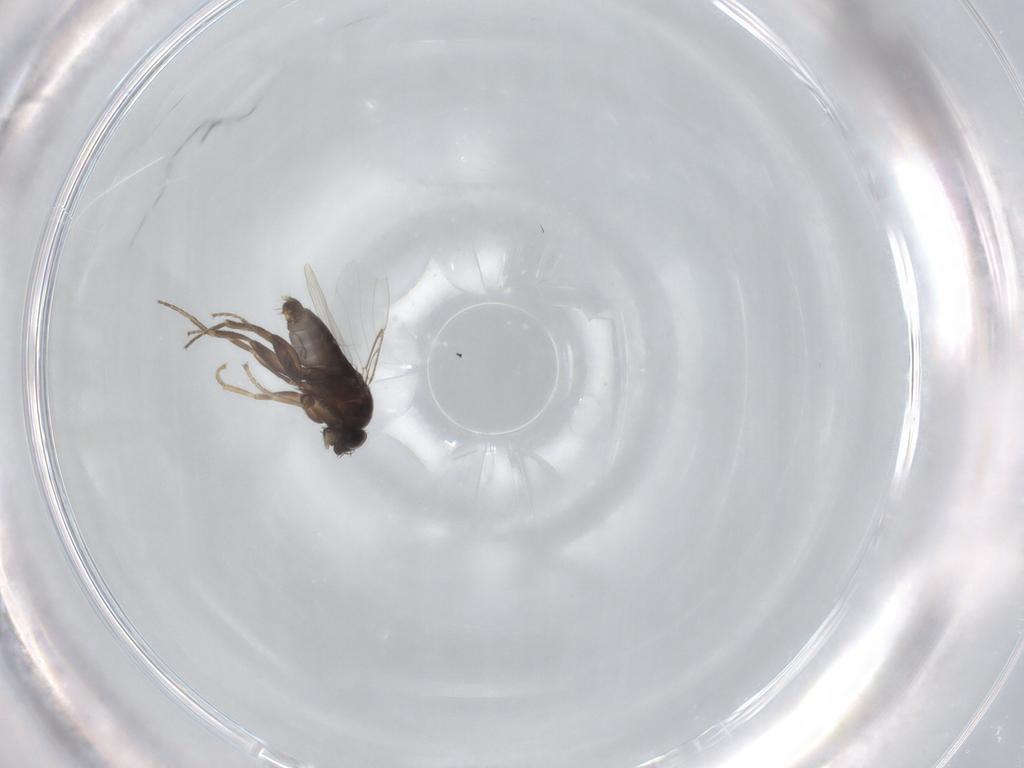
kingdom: Animalia
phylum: Arthropoda
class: Insecta
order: Diptera
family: Phoridae
